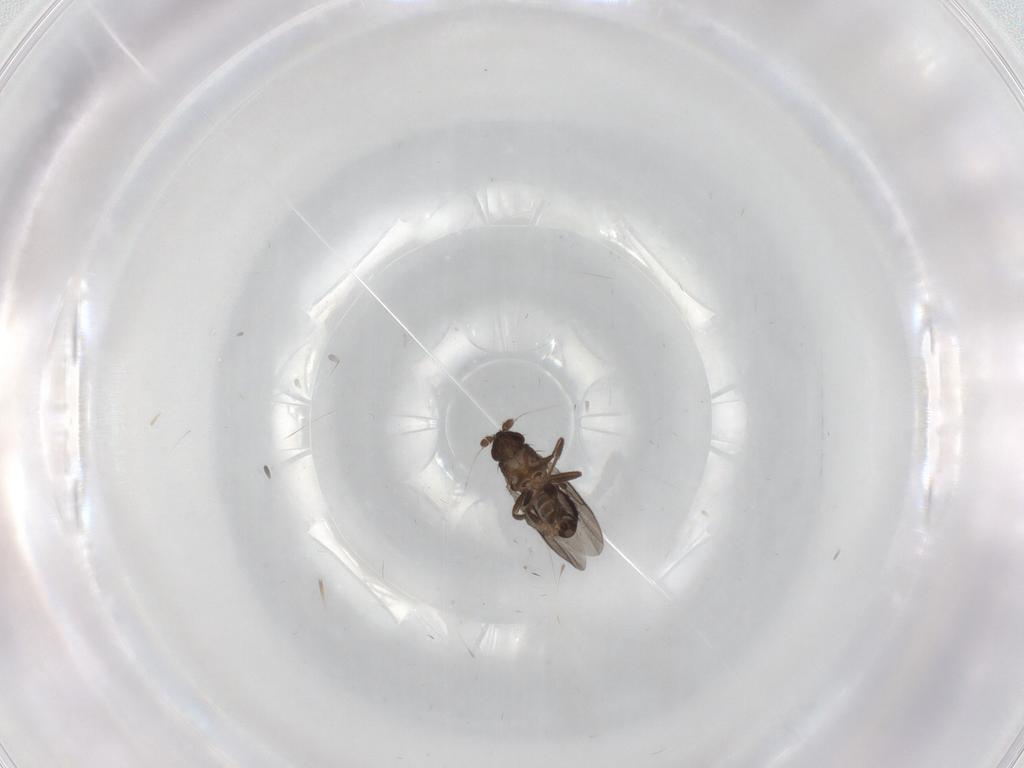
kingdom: Animalia
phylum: Arthropoda
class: Insecta
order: Diptera
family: Sphaeroceridae
